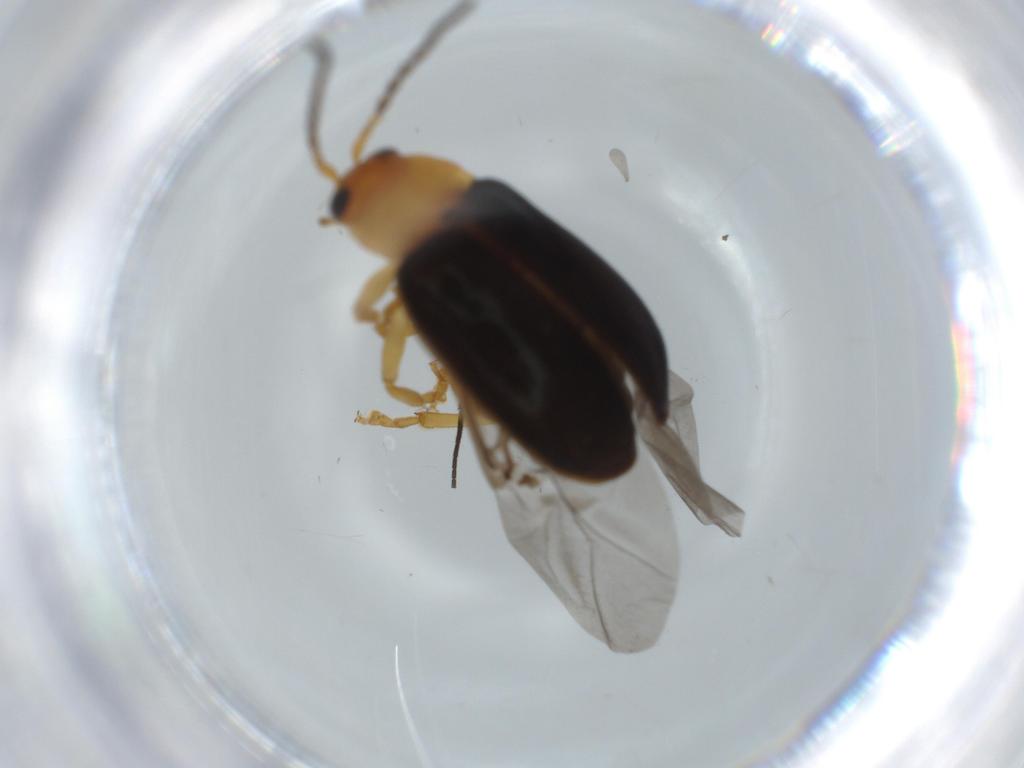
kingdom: Animalia
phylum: Arthropoda
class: Insecta
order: Coleoptera
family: Chrysomelidae
